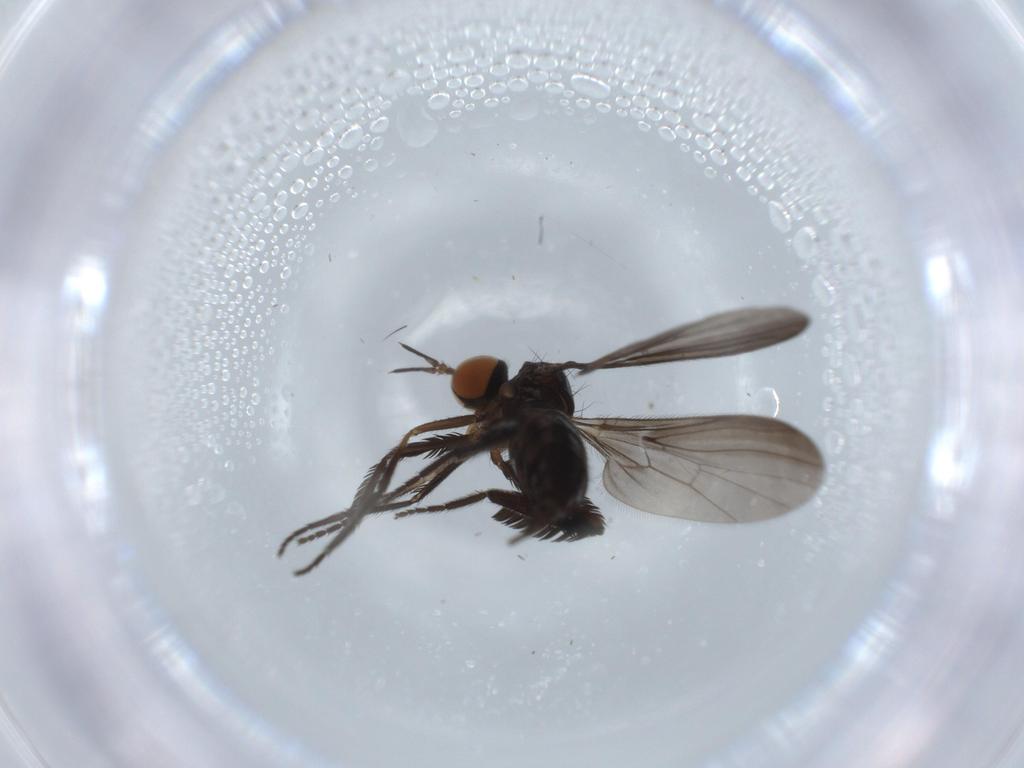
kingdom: Animalia
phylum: Arthropoda
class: Insecta
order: Diptera
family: Empididae
